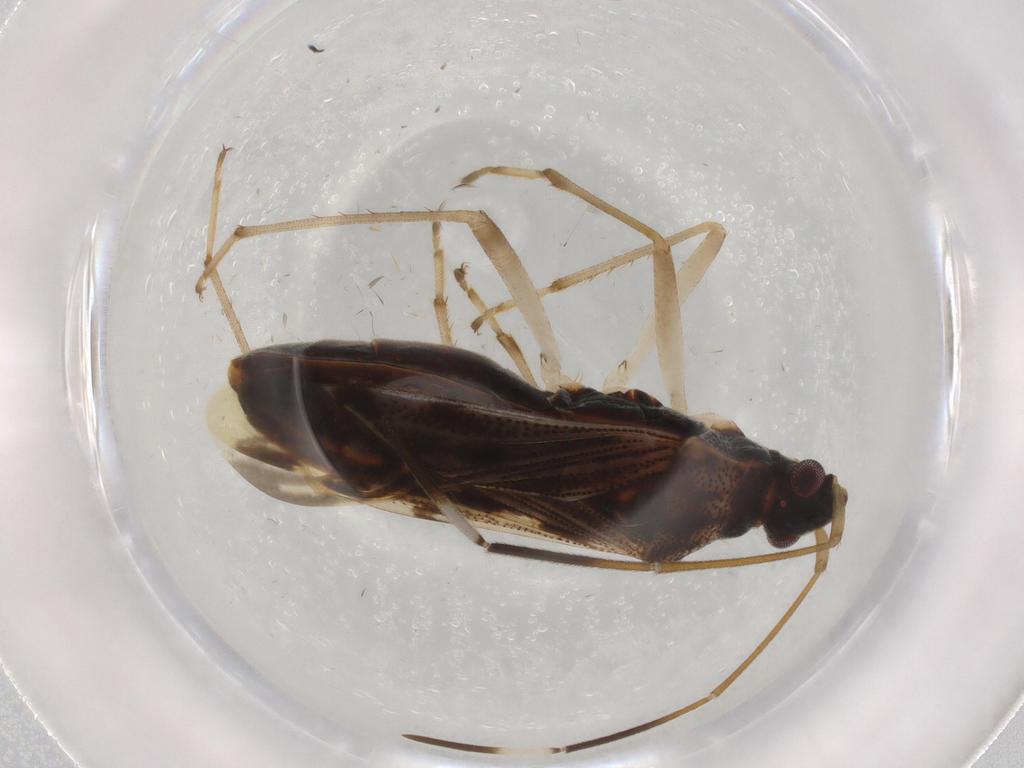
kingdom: Animalia
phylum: Arthropoda
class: Insecta
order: Hemiptera
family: Rhyparochromidae
